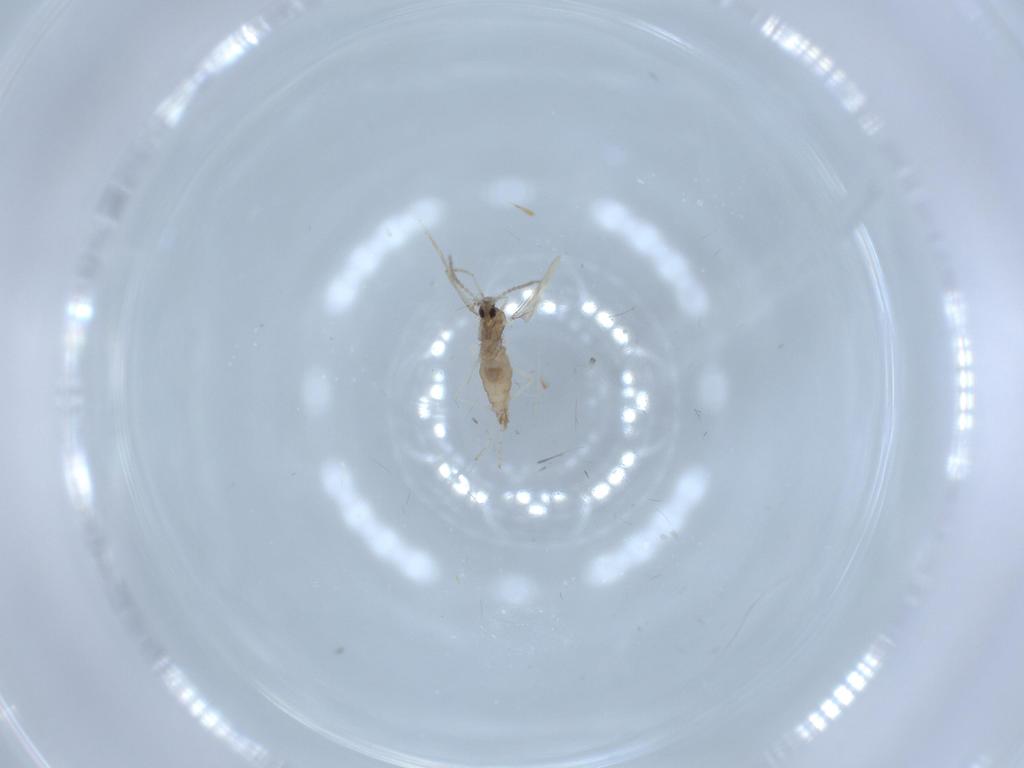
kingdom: Animalia
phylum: Arthropoda
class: Insecta
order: Diptera
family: Cecidomyiidae
